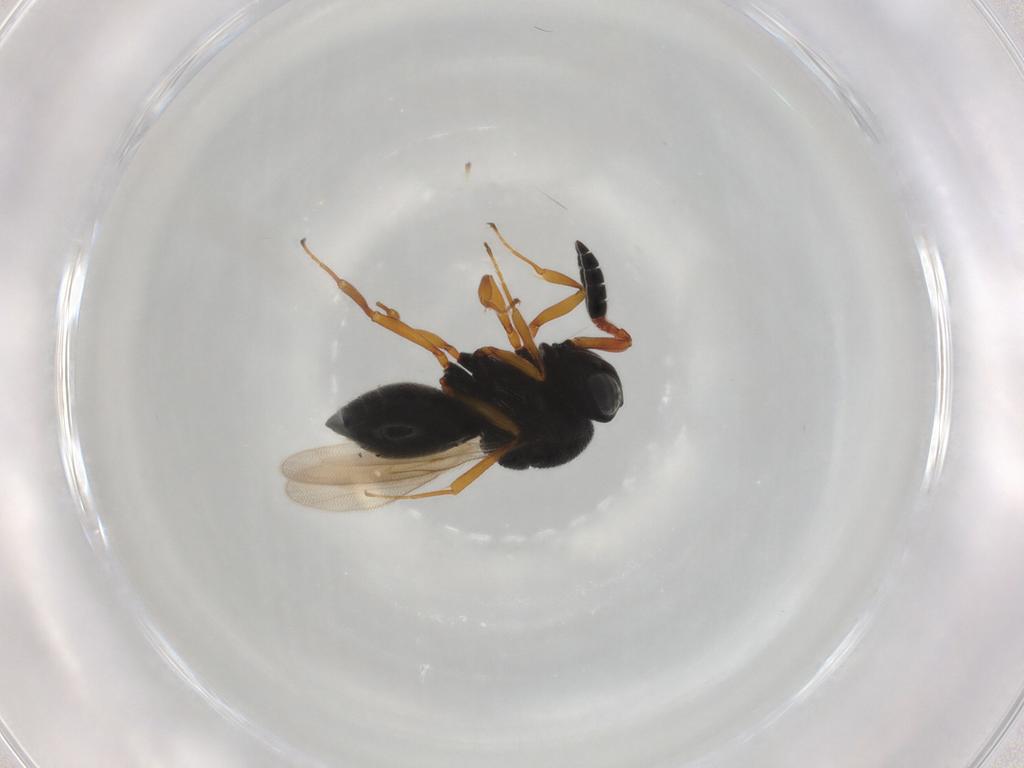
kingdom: Animalia
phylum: Arthropoda
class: Insecta
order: Hymenoptera
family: Scelionidae
